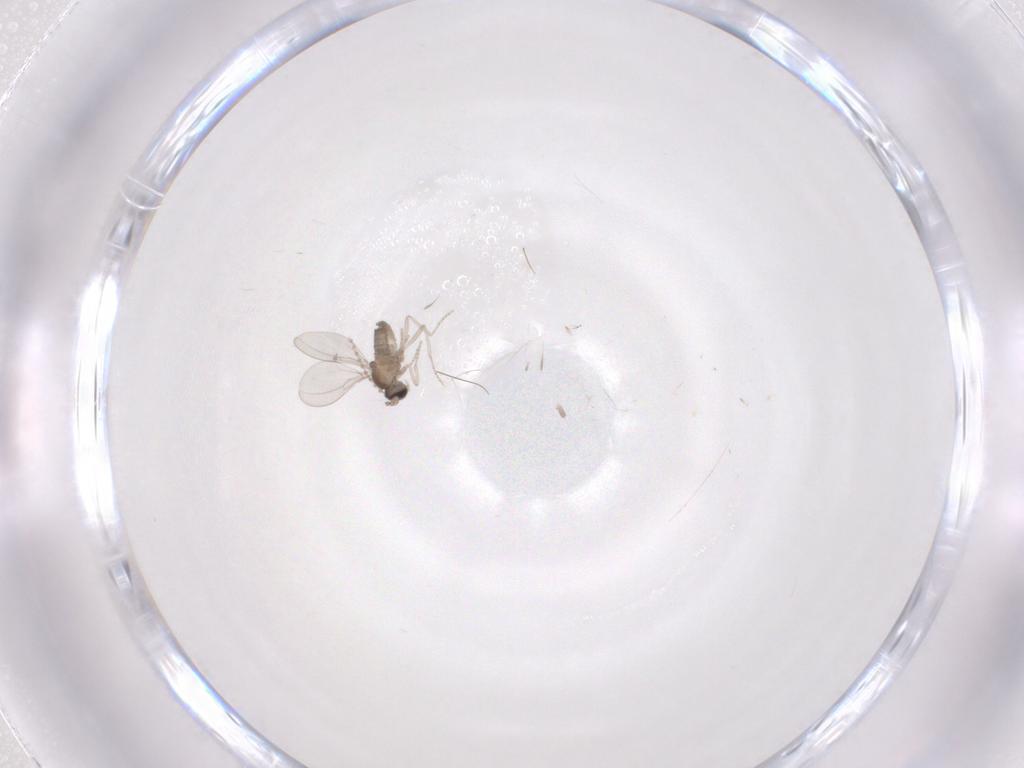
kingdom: Animalia
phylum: Arthropoda
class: Insecta
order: Diptera
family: Cecidomyiidae
